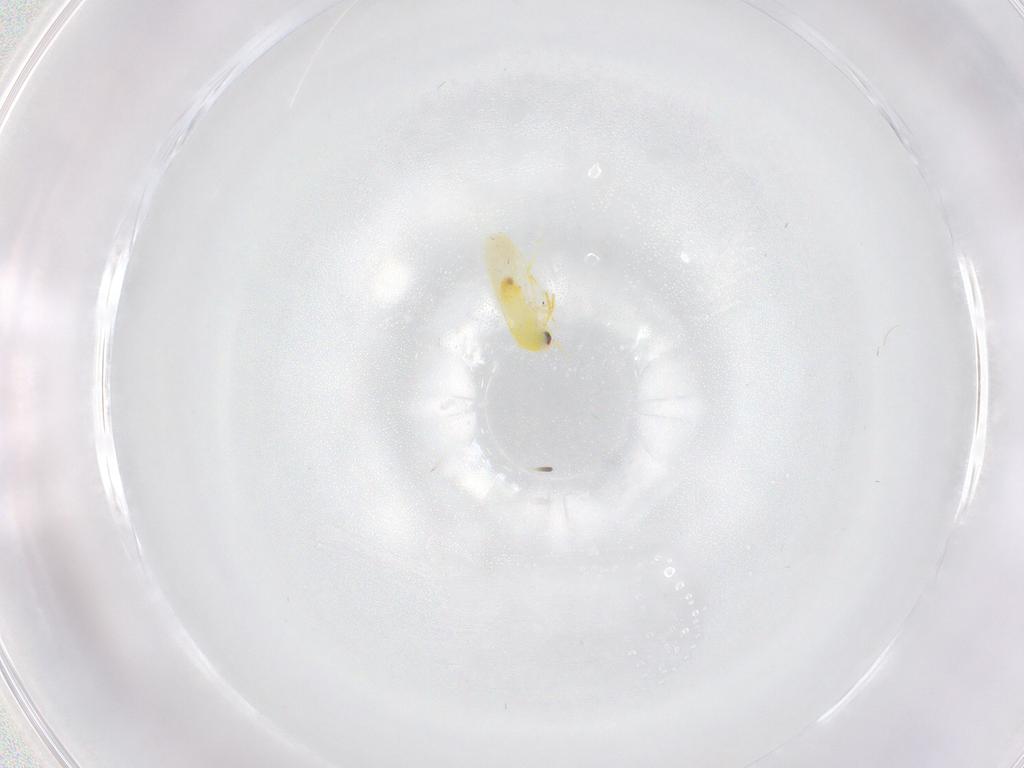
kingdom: Animalia
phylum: Arthropoda
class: Insecta
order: Hemiptera
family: Aleyrodidae
